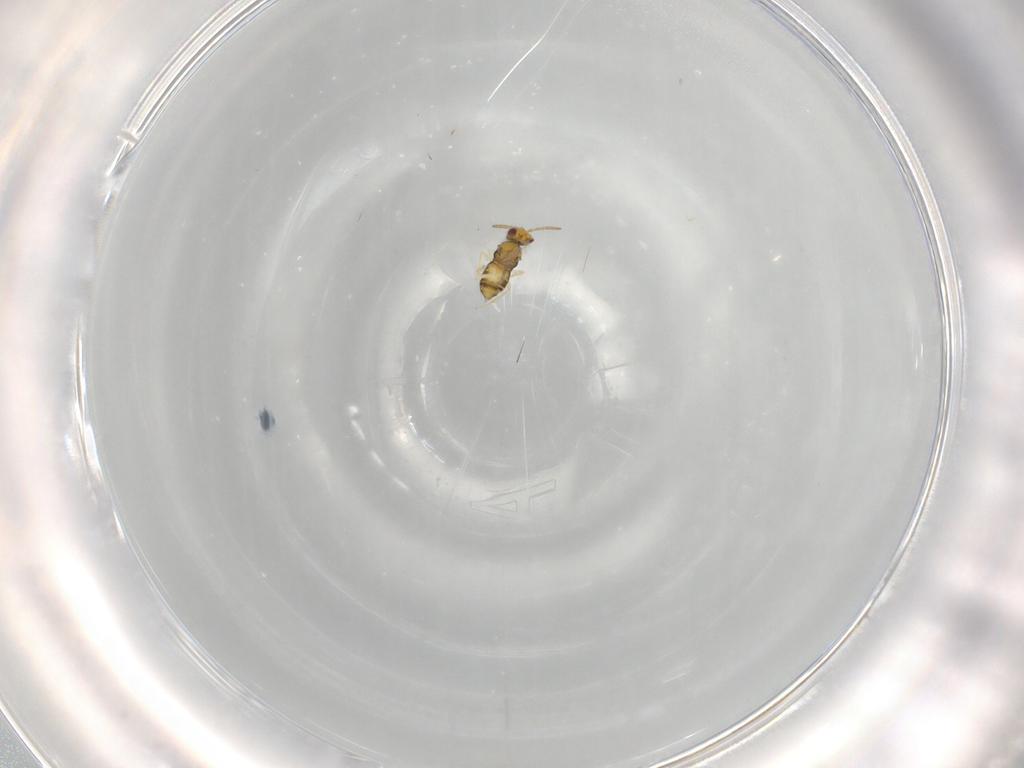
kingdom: Animalia
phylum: Arthropoda
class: Insecta
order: Hymenoptera
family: Aphelinidae
